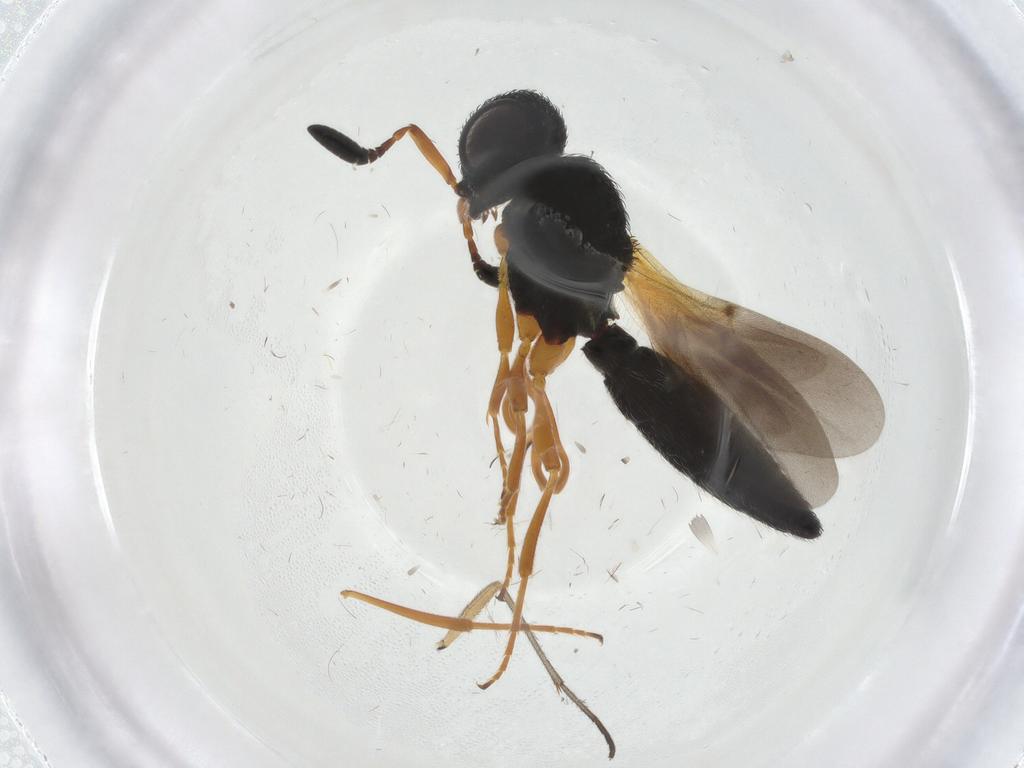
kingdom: Animalia
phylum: Arthropoda
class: Insecta
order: Hymenoptera
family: Scelionidae
